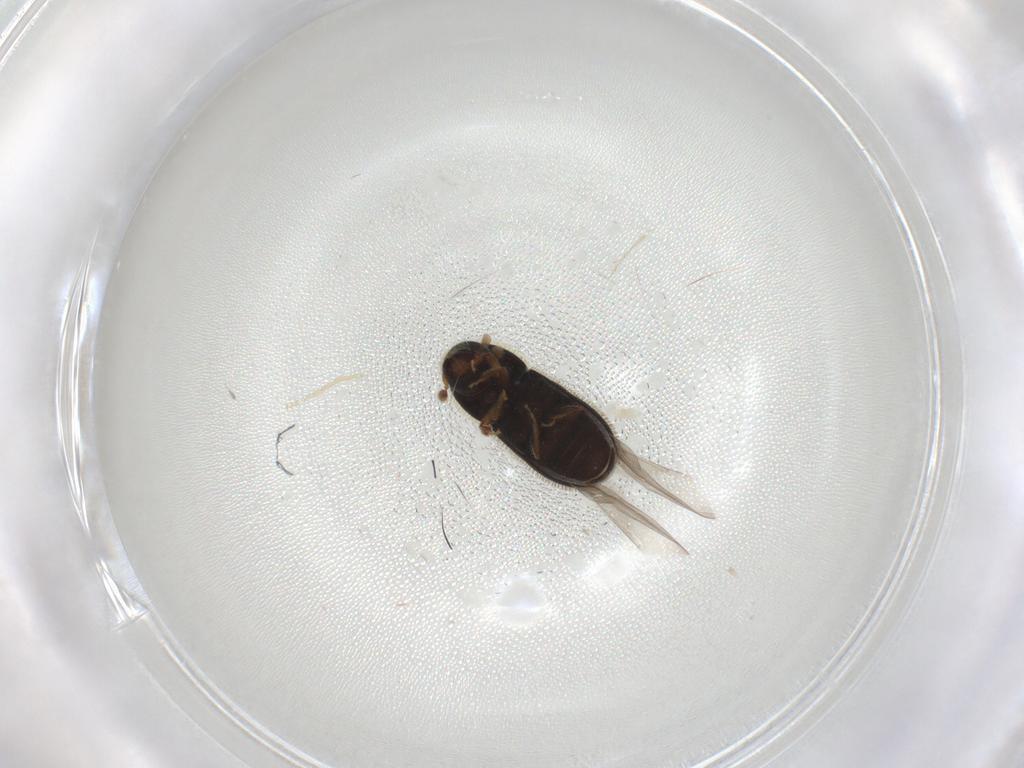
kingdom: Animalia
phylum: Arthropoda
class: Insecta
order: Coleoptera
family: Curculionidae
